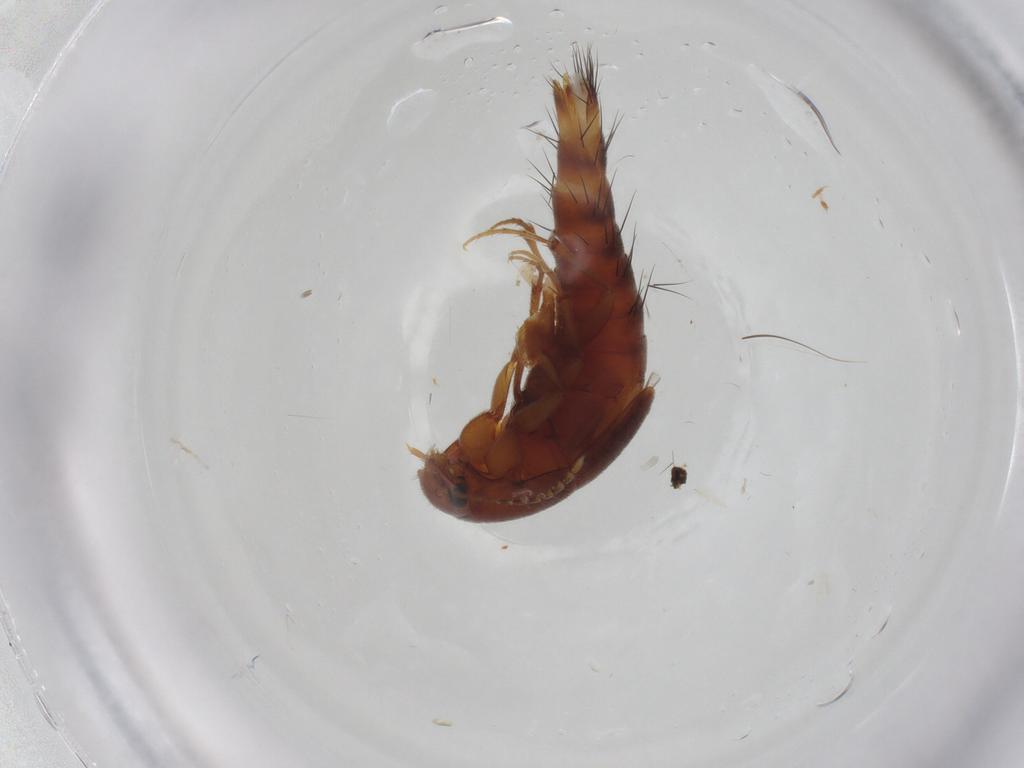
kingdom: Animalia
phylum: Arthropoda
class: Insecta
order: Coleoptera
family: Staphylinidae
